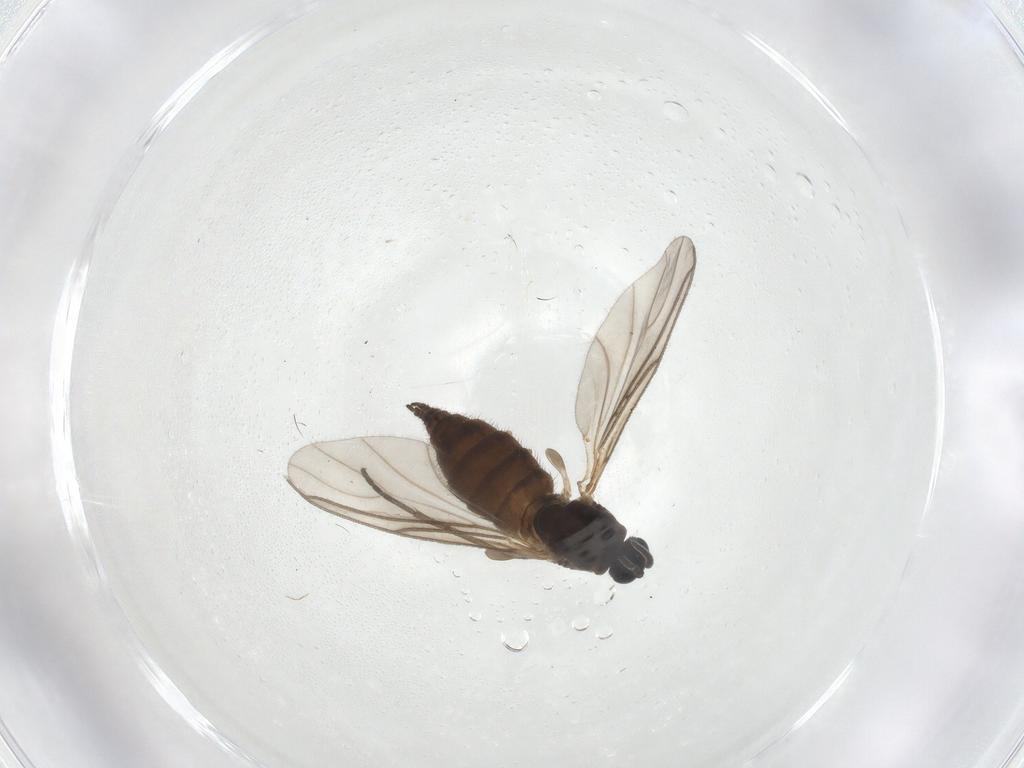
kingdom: Animalia
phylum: Arthropoda
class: Insecta
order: Diptera
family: Sciaridae
